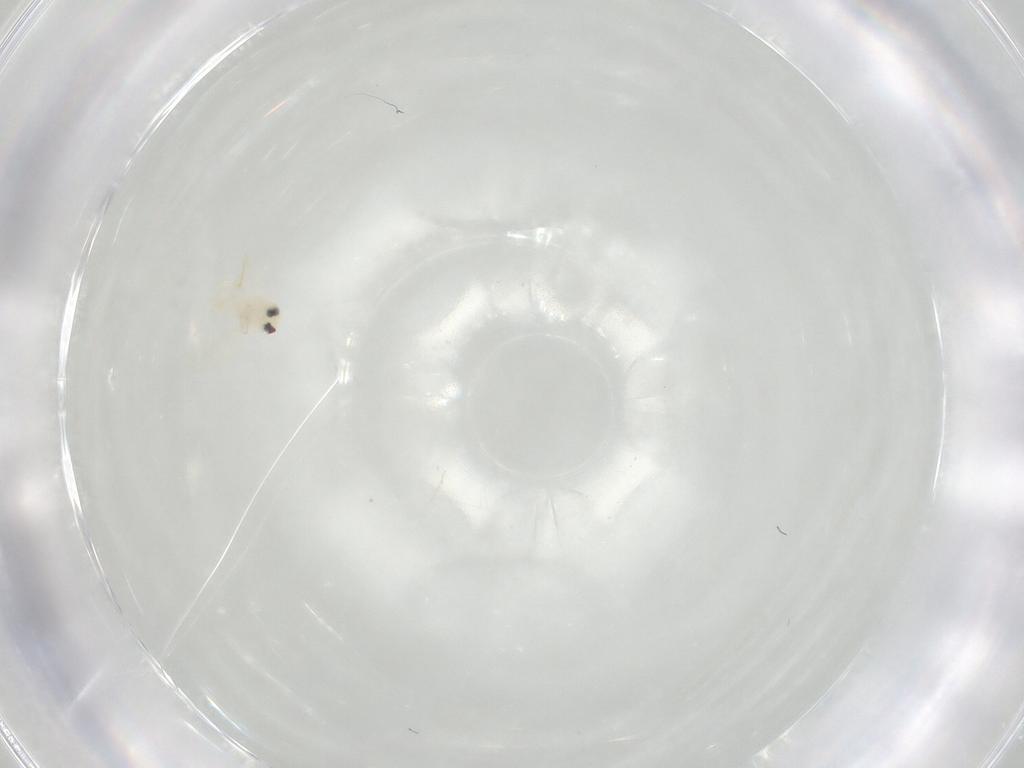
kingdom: Animalia
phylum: Arthropoda
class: Insecta
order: Hemiptera
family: Aleyrodidae
